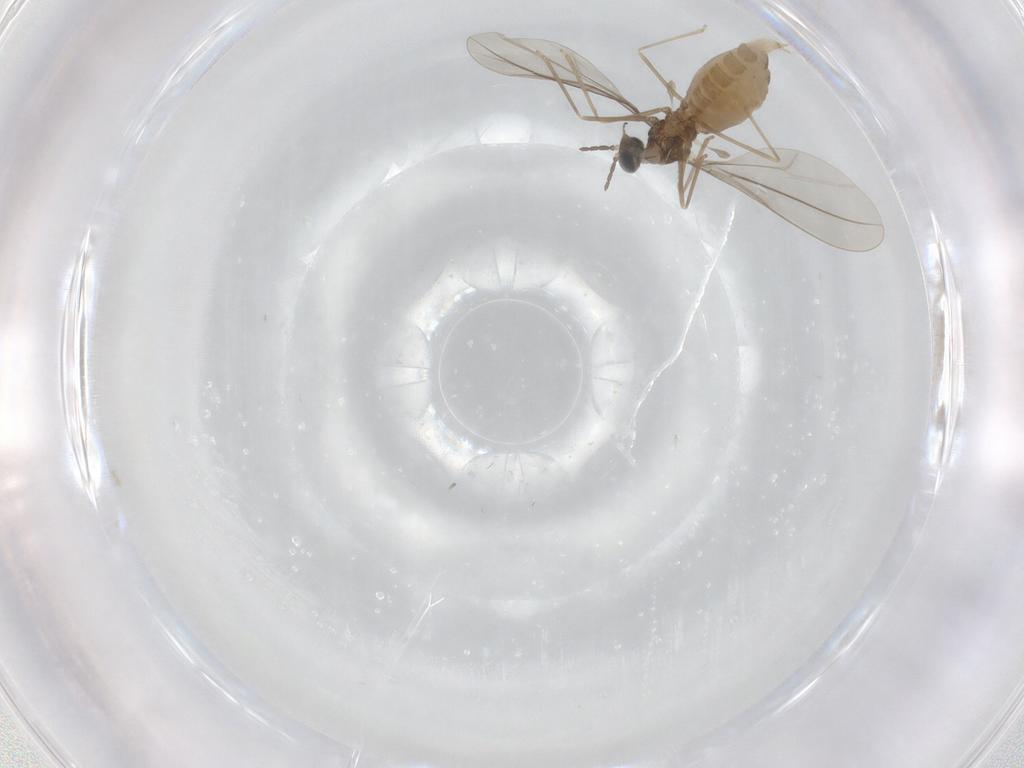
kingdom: Animalia
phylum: Arthropoda
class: Insecta
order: Diptera
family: Cecidomyiidae
